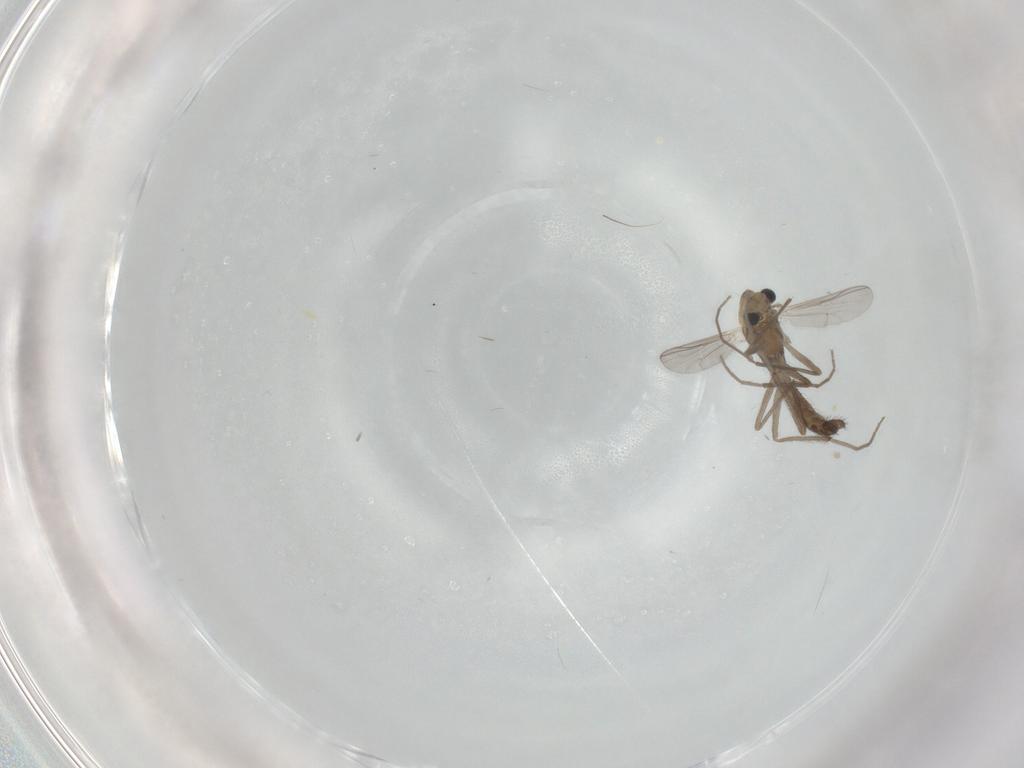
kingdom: Animalia
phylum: Arthropoda
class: Insecta
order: Diptera
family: Chironomidae
